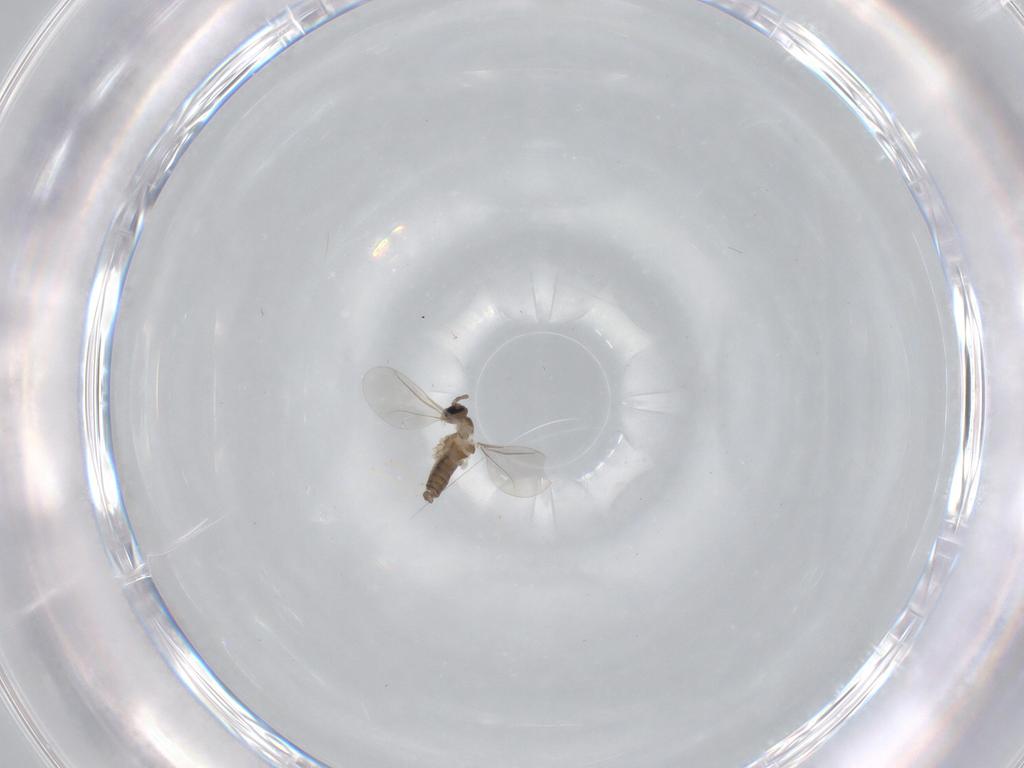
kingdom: Animalia
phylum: Arthropoda
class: Insecta
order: Diptera
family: Cecidomyiidae
